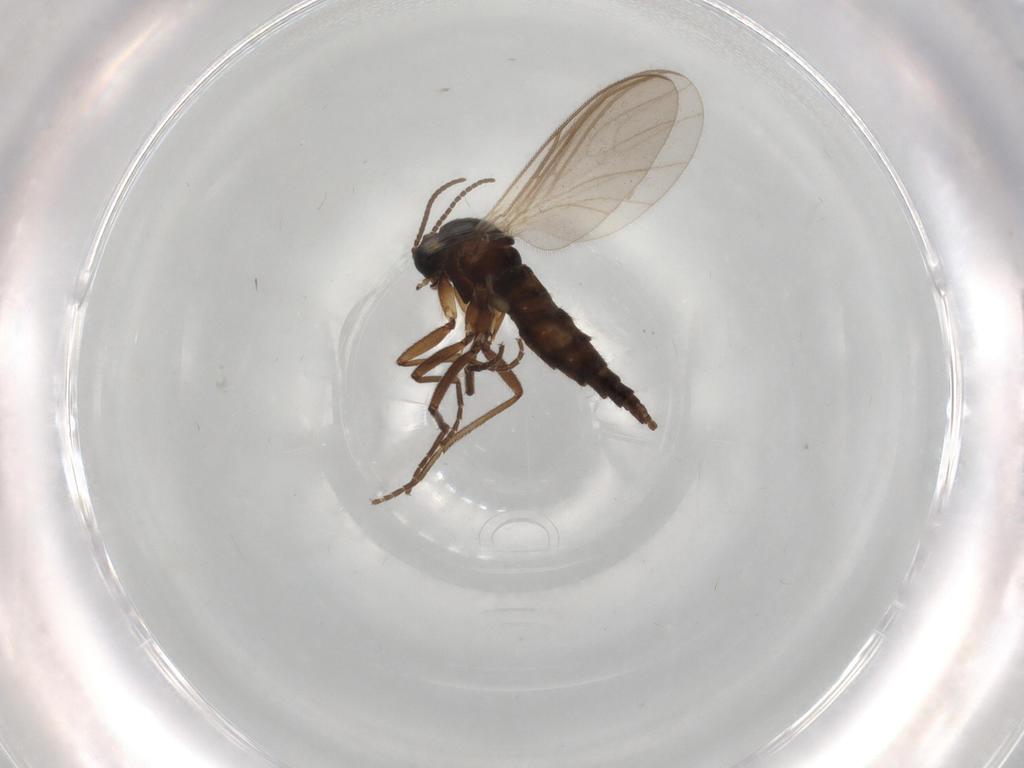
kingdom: Animalia
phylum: Arthropoda
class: Insecta
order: Diptera
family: Sciaridae
